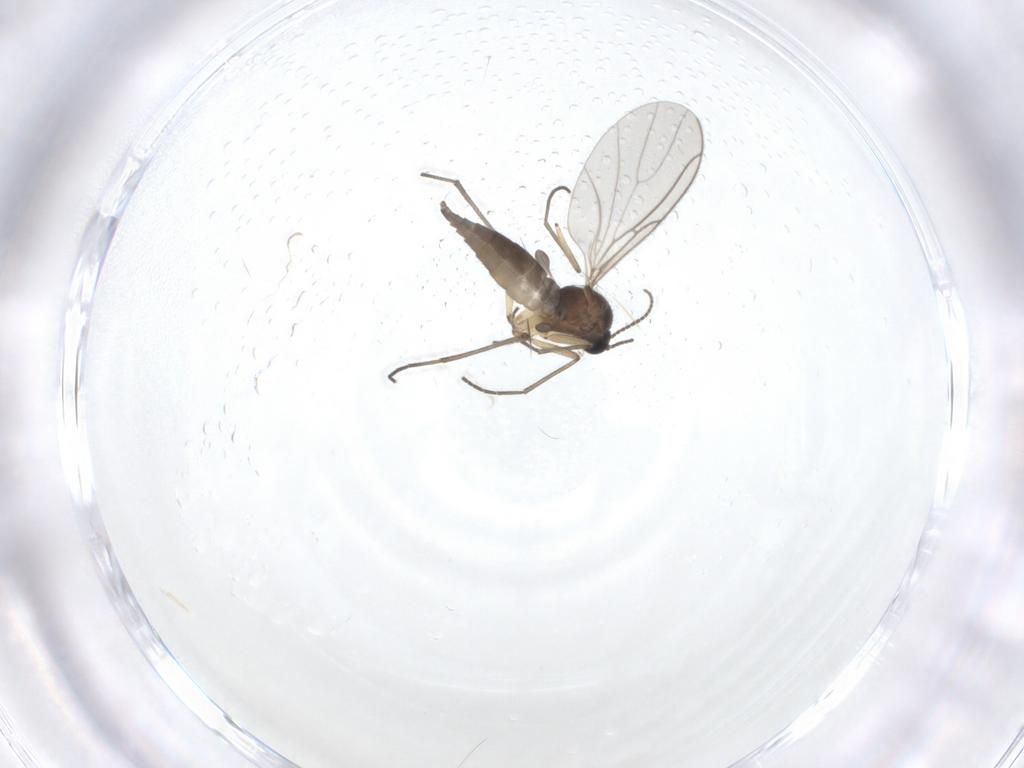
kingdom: Animalia
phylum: Arthropoda
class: Insecta
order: Diptera
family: Sciaridae
